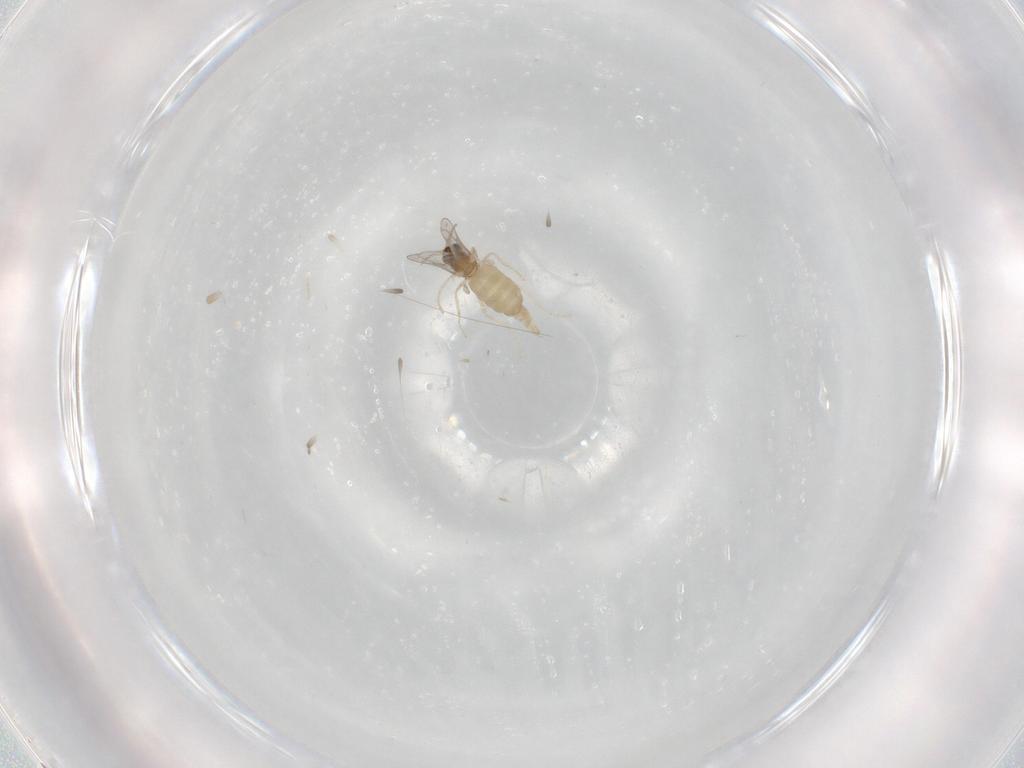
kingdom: Animalia
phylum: Arthropoda
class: Insecta
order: Diptera
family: Cecidomyiidae
